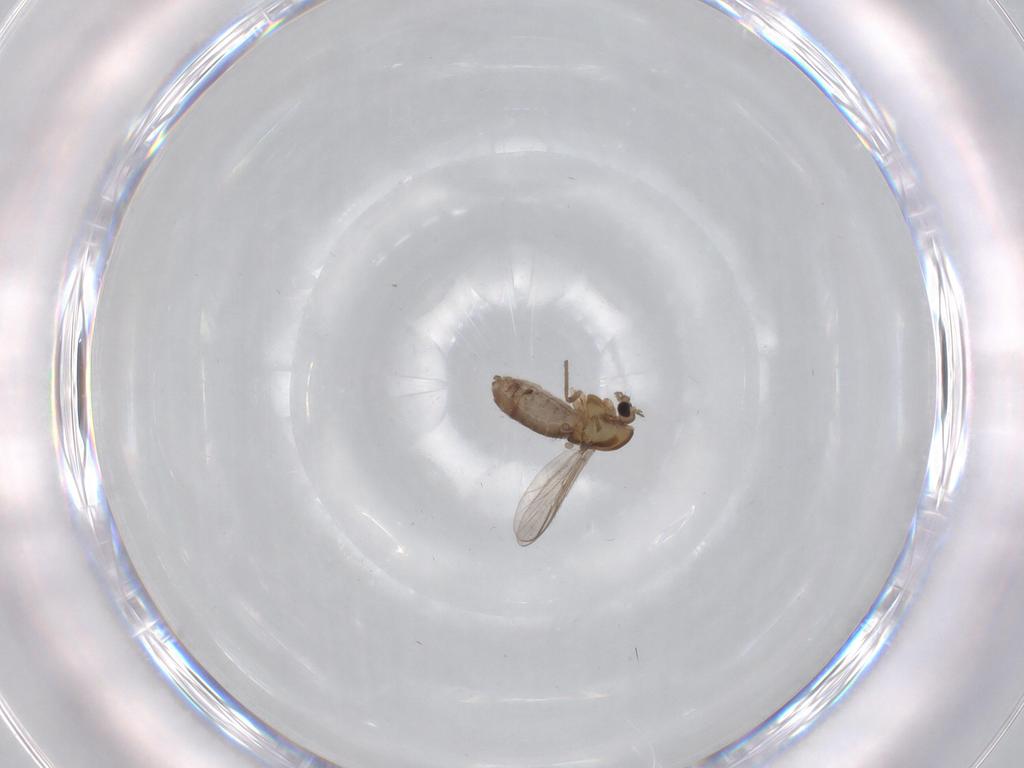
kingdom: Animalia
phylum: Arthropoda
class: Insecta
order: Diptera
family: Chironomidae
